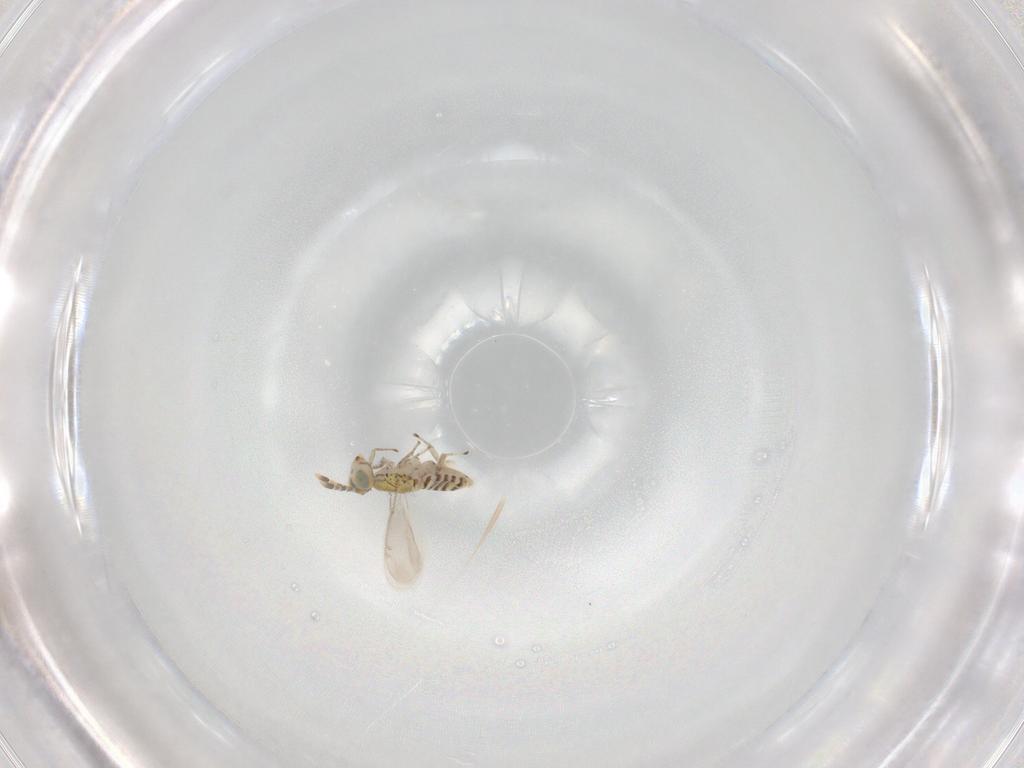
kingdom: Animalia
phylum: Arthropoda
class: Insecta
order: Hymenoptera
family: Aphelinidae
